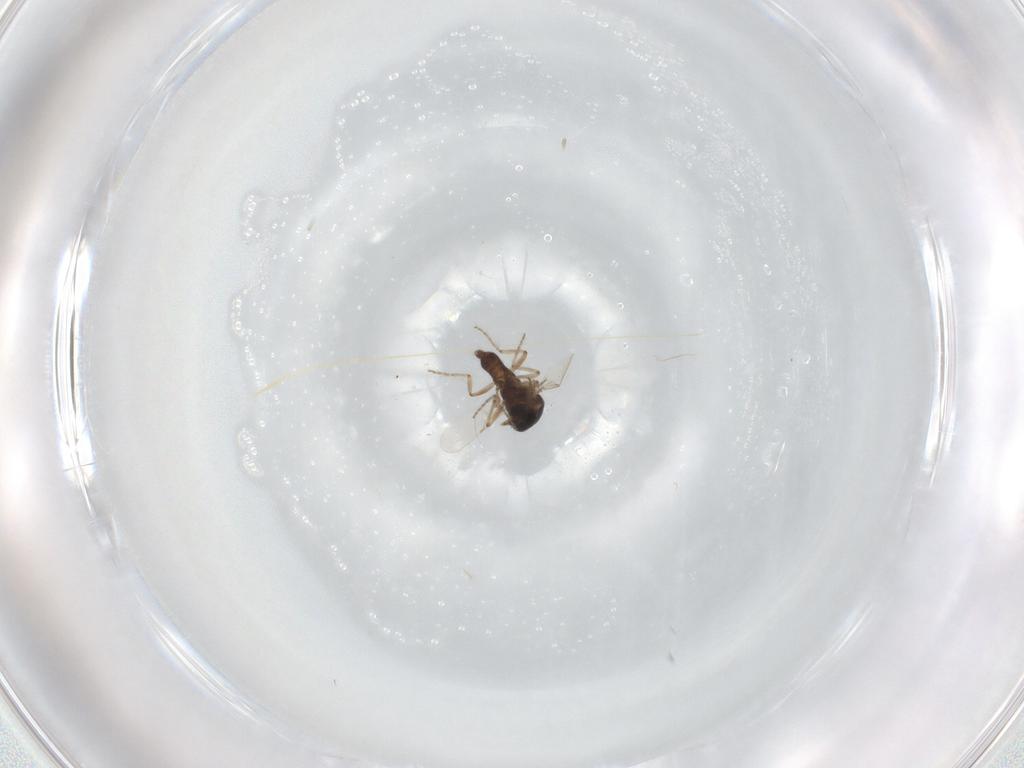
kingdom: Animalia
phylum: Arthropoda
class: Insecta
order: Diptera
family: Ceratopogonidae
